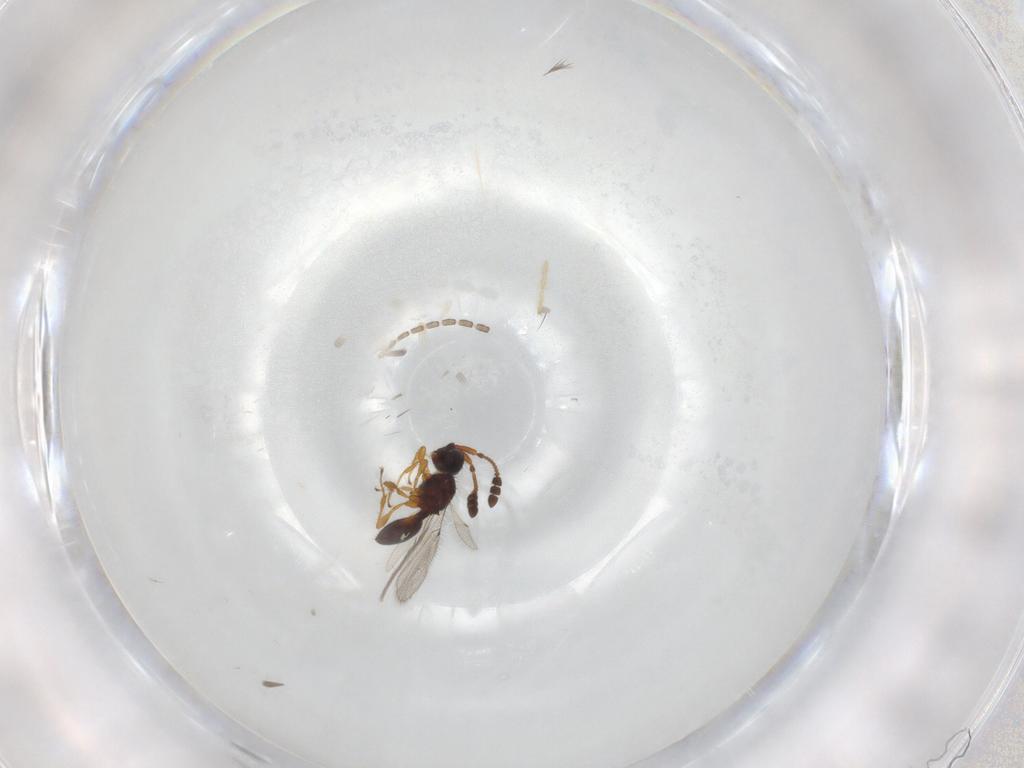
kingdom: Animalia
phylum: Arthropoda
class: Insecta
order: Hymenoptera
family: Diapriidae
